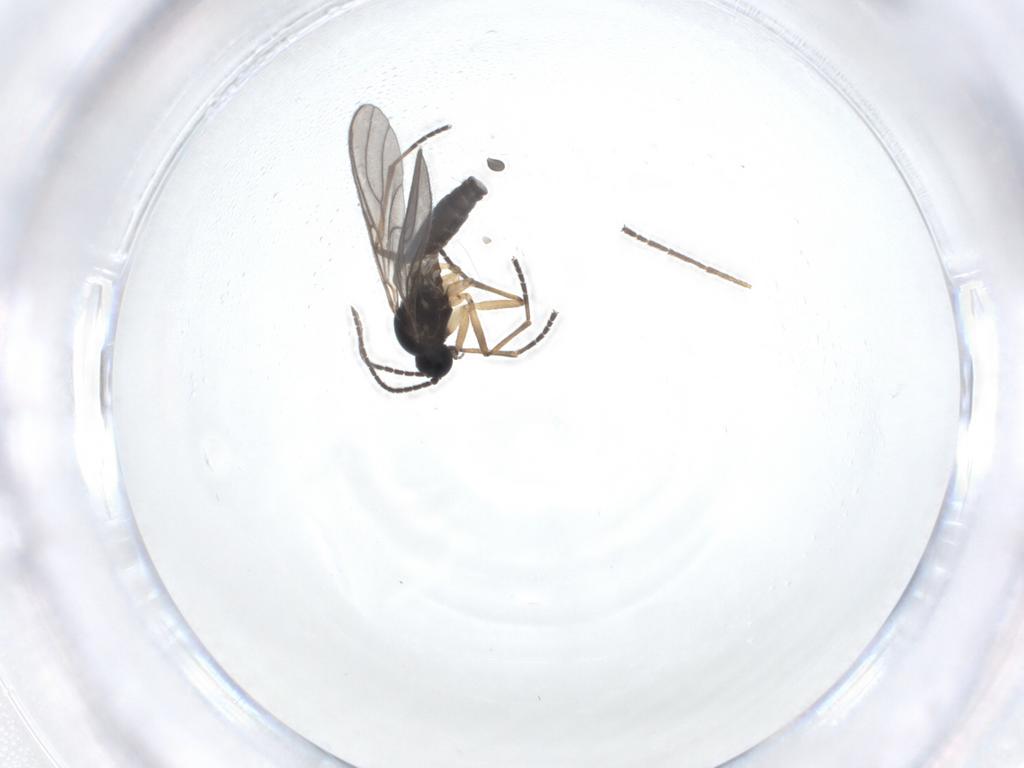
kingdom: Animalia
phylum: Arthropoda
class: Insecta
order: Diptera
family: Sciaridae
